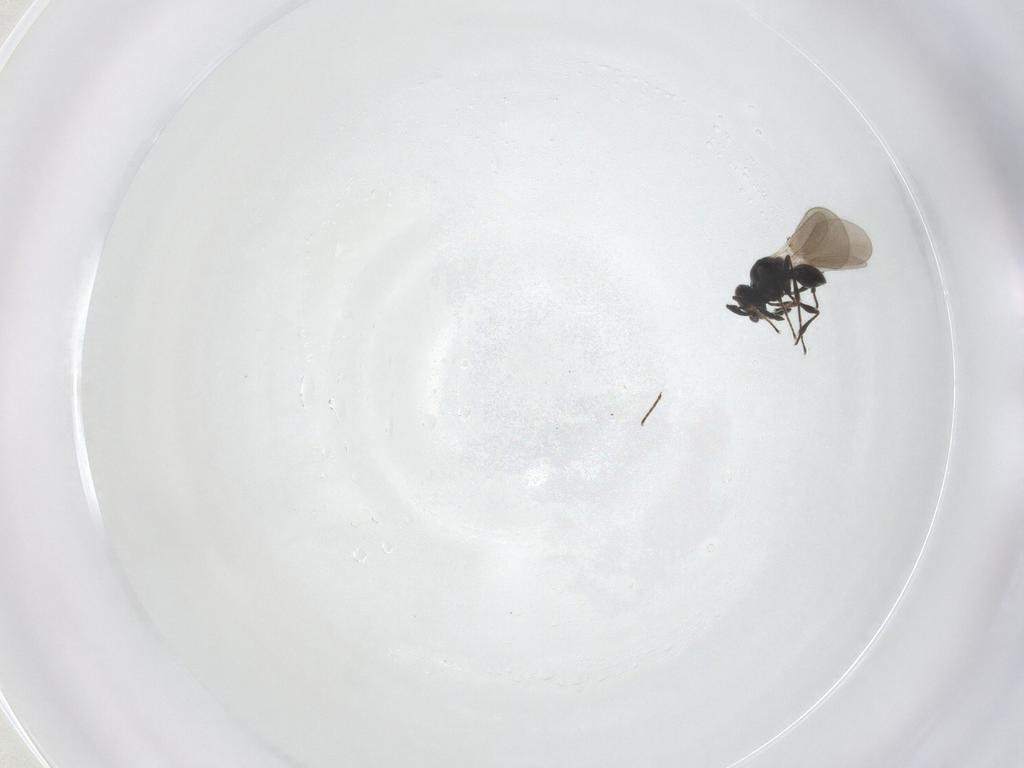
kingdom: Animalia
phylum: Arthropoda
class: Insecta
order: Hymenoptera
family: Platygastridae
